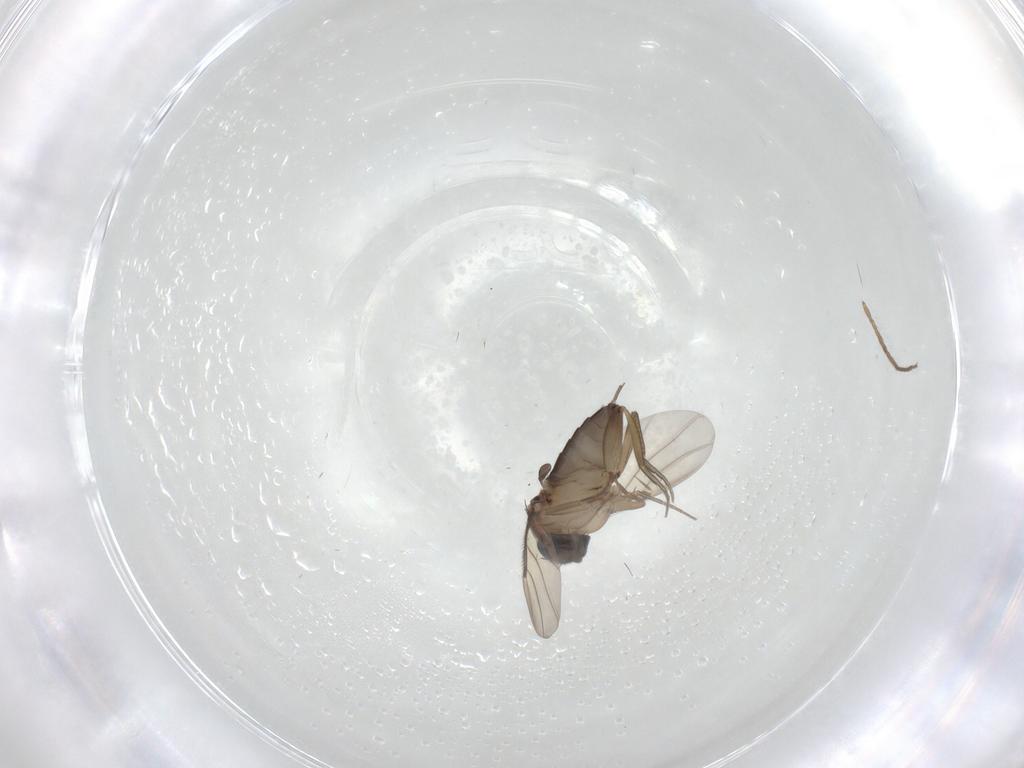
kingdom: Animalia
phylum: Arthropoda
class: Insecta
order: Diptera
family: Phoridae
